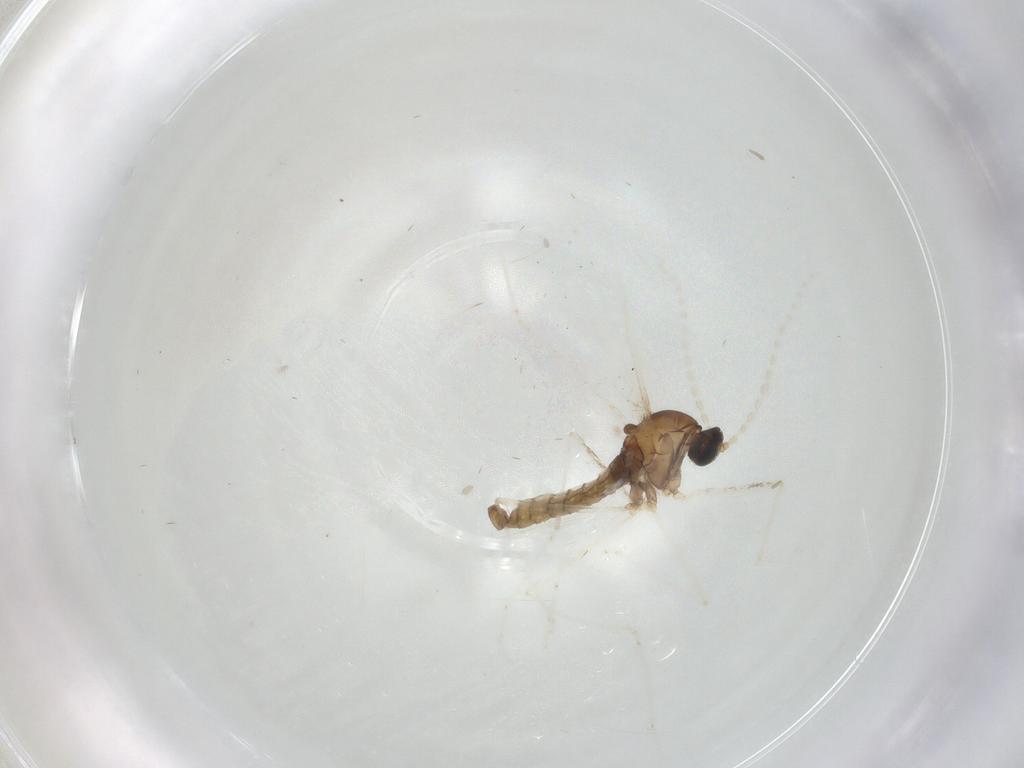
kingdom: Animalia
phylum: Arthropoda
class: Insecta
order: Diptera
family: Cecidomyiidae
